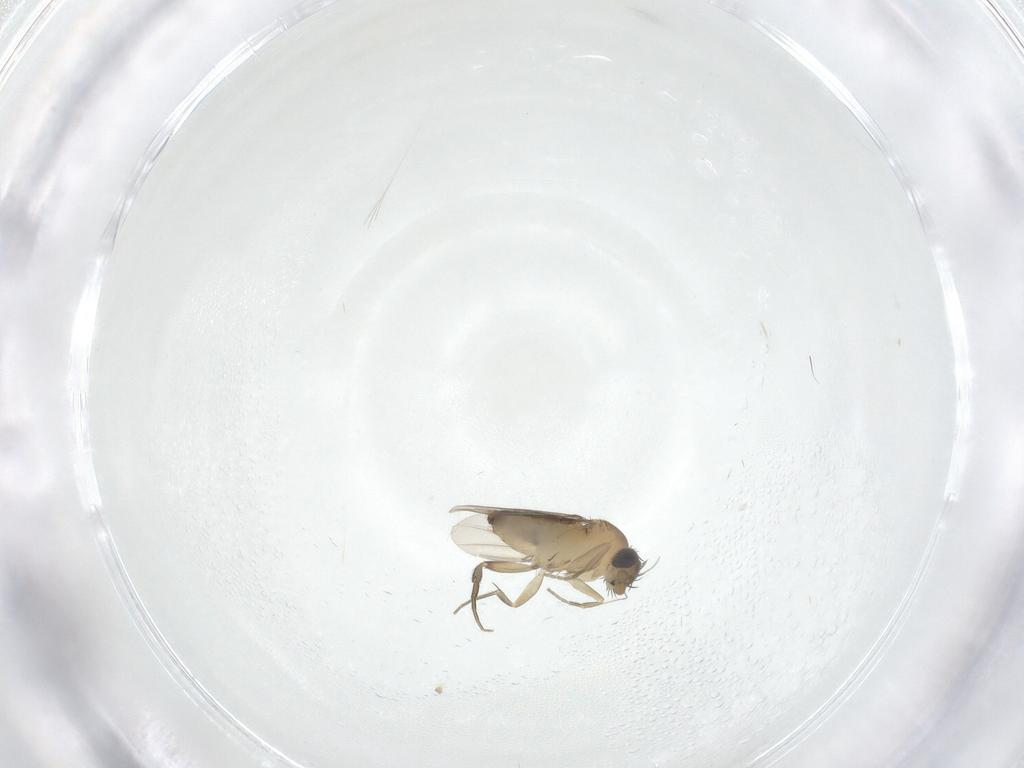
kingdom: Animalia
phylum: Arthropoda
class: Insecta
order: Diptera
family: Phoridae
